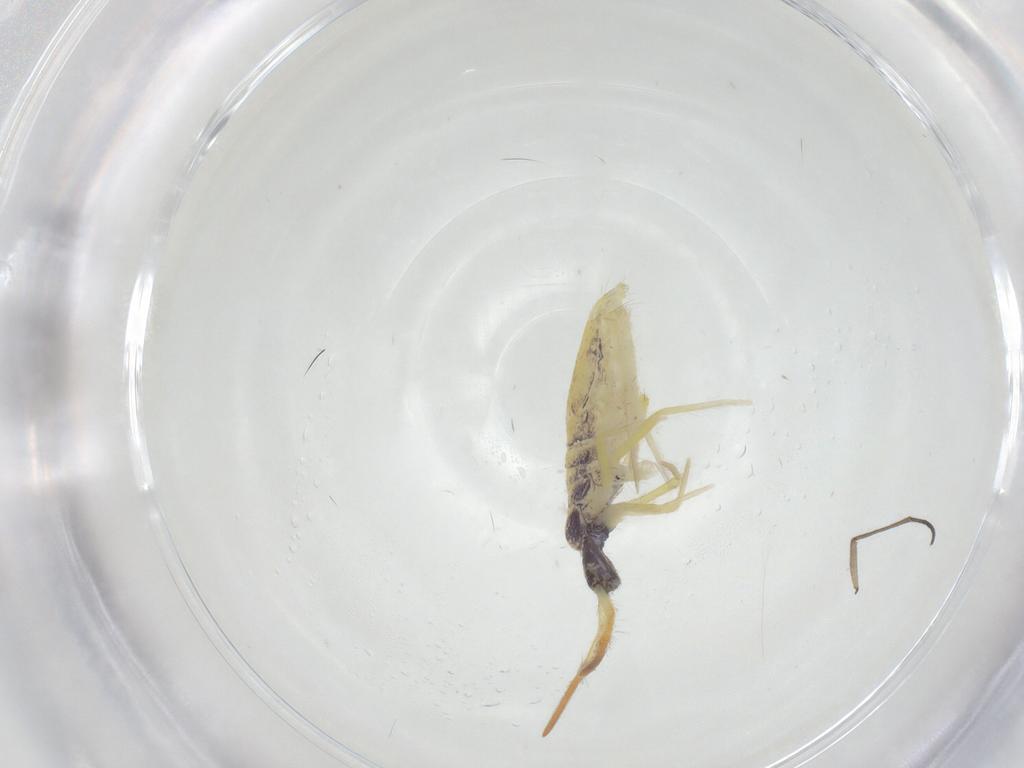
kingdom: Animalia
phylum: Arthropoda
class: Collembola
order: Entomobryomorpha
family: Entomobryidae
